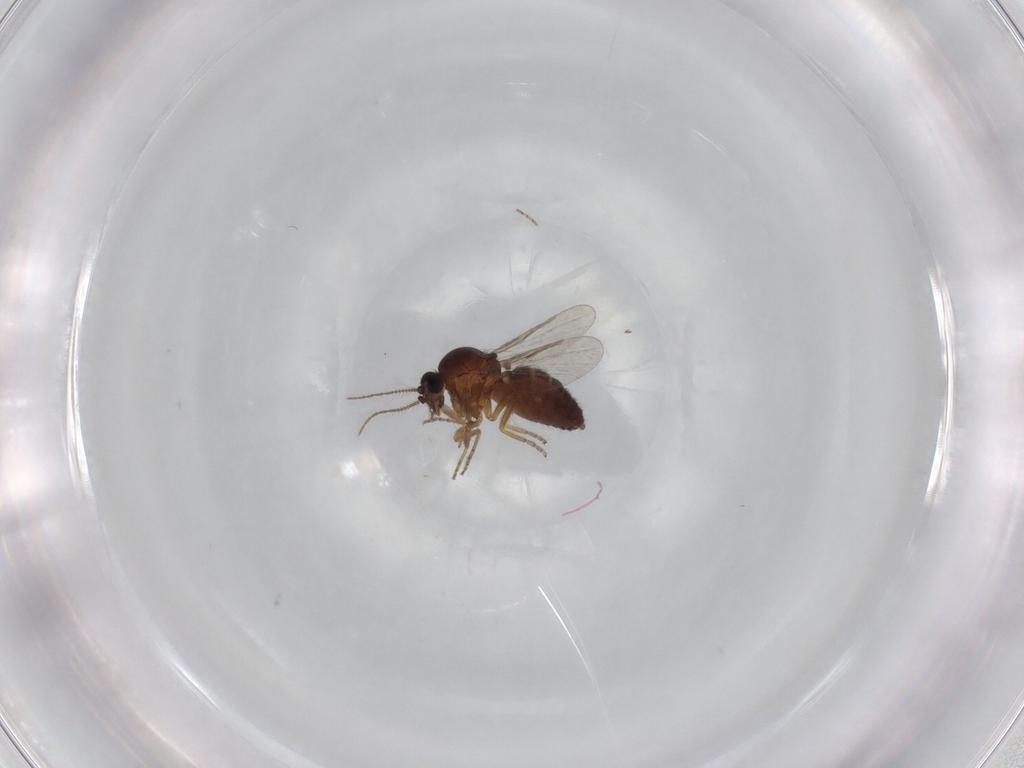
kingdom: Animalia
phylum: Arthropoda
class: Insecta
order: Diptera
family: Ceratopogonidae
